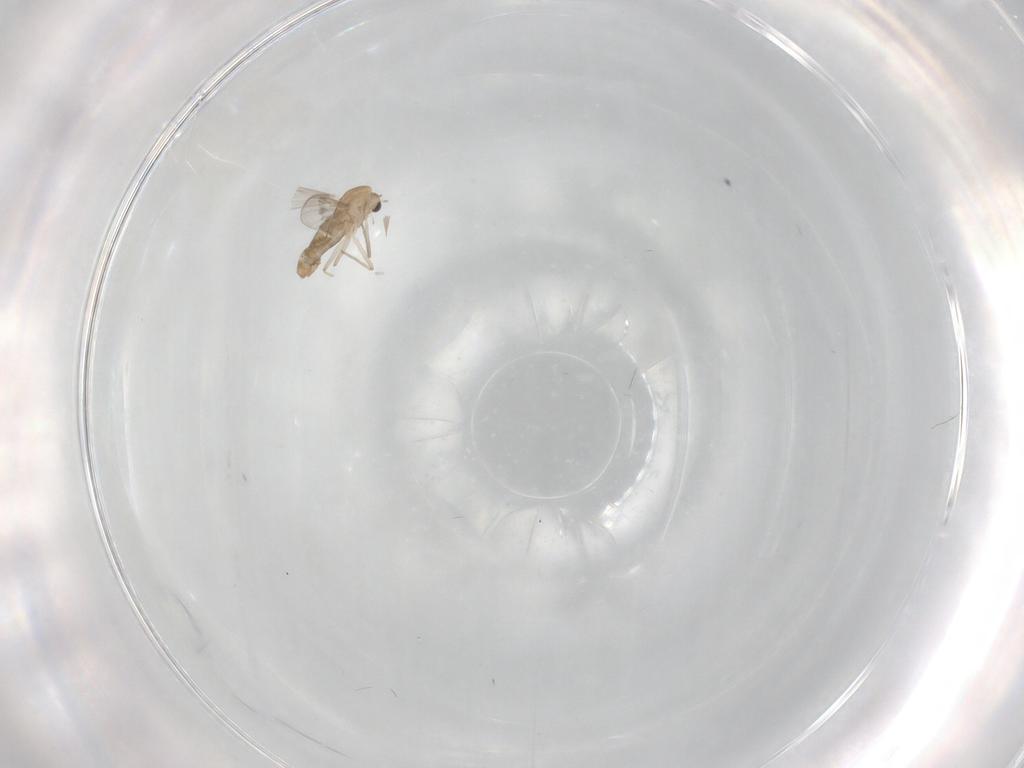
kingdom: Animalia
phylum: Arthropoda
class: Insecta
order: Diptera
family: Chironomidae
